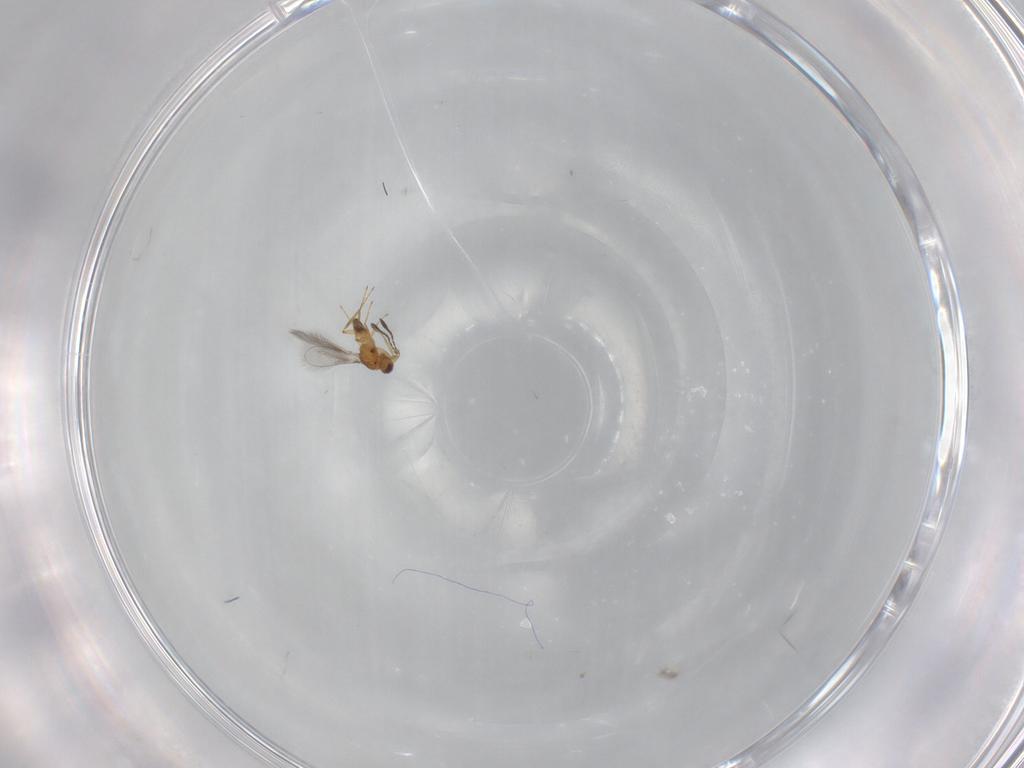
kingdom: Animalia
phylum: Arthropoda
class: Insecta
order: Hymenoptera
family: Mymaridae
